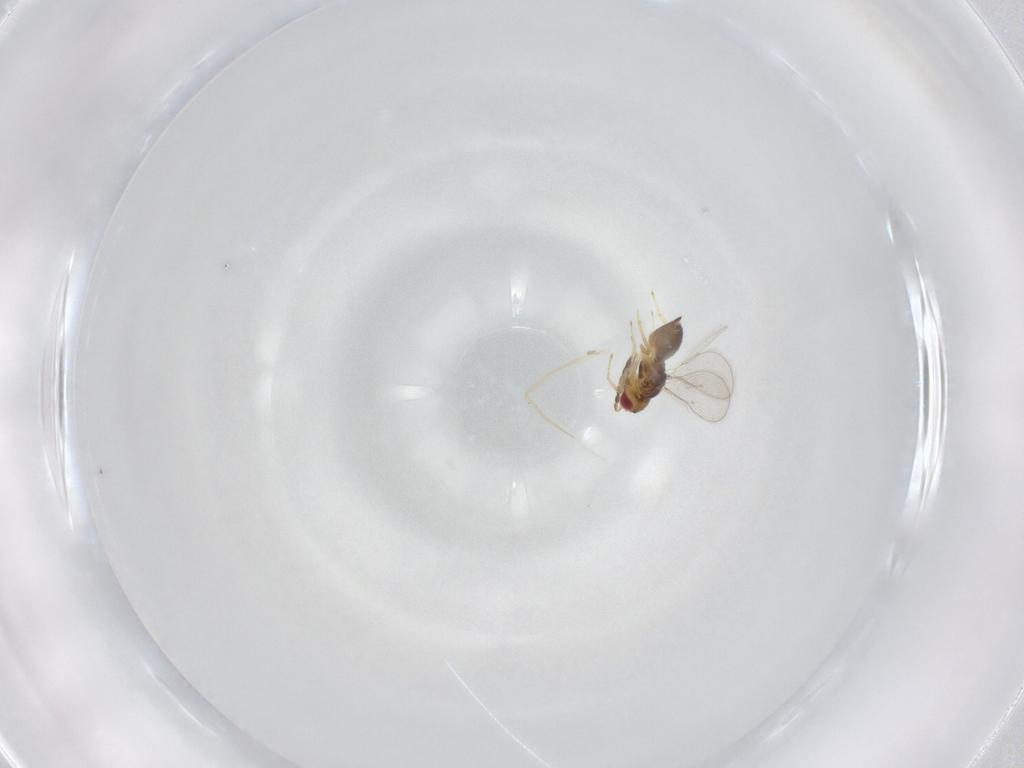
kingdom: Animalia
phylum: Arthropoda
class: Insecta
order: Hymenoptera
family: Eulophidae
